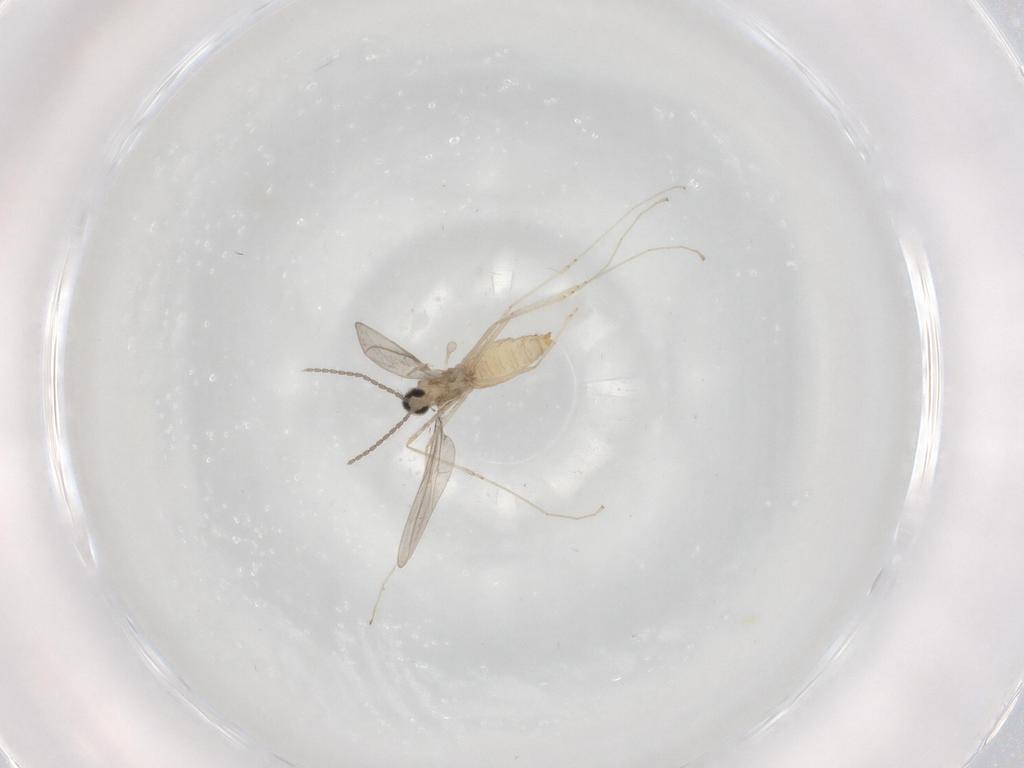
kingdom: Animalia
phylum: Arthropoda
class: Insecta
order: Diptera
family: Cecidomyiidae
